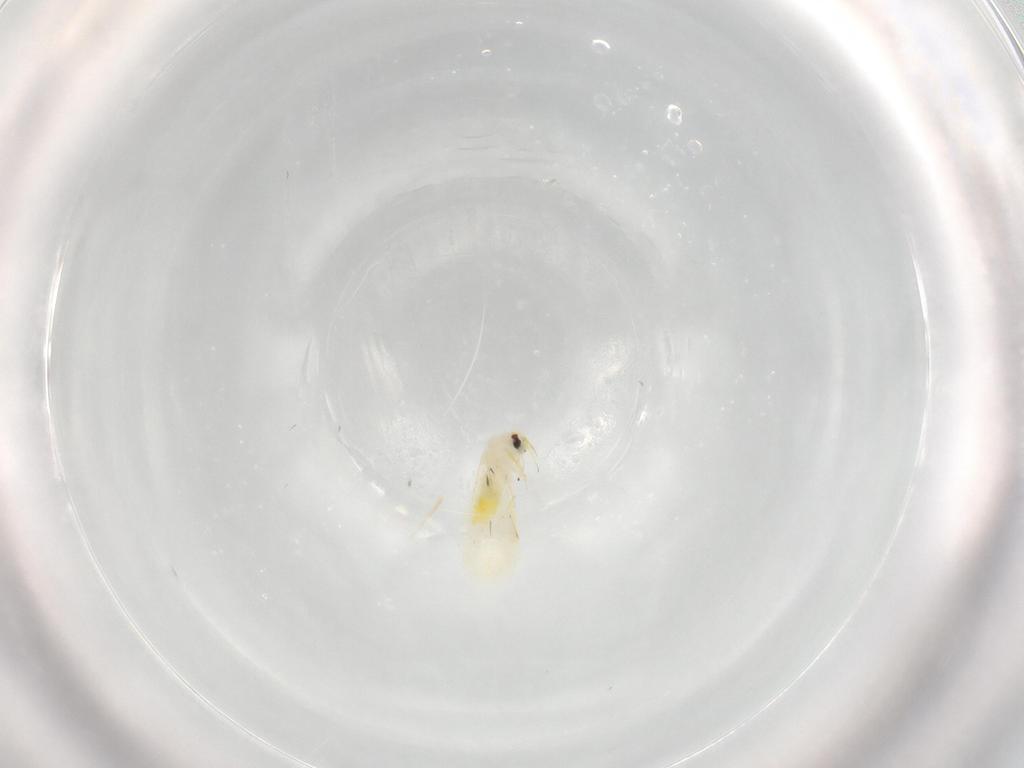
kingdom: Animalia
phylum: Arthropoda
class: Insecta
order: Hemiptera
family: Aleyrodidae
